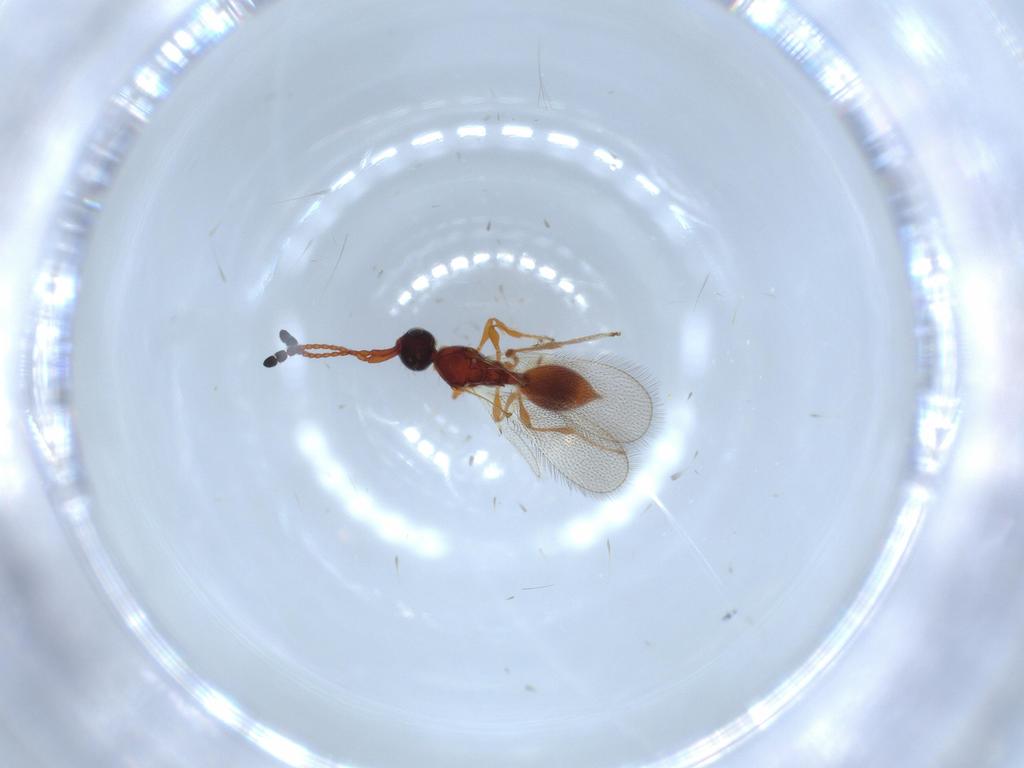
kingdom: Animalia
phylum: Arthropoda
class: Insecta
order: Hymenoptera
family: Diapriidae
